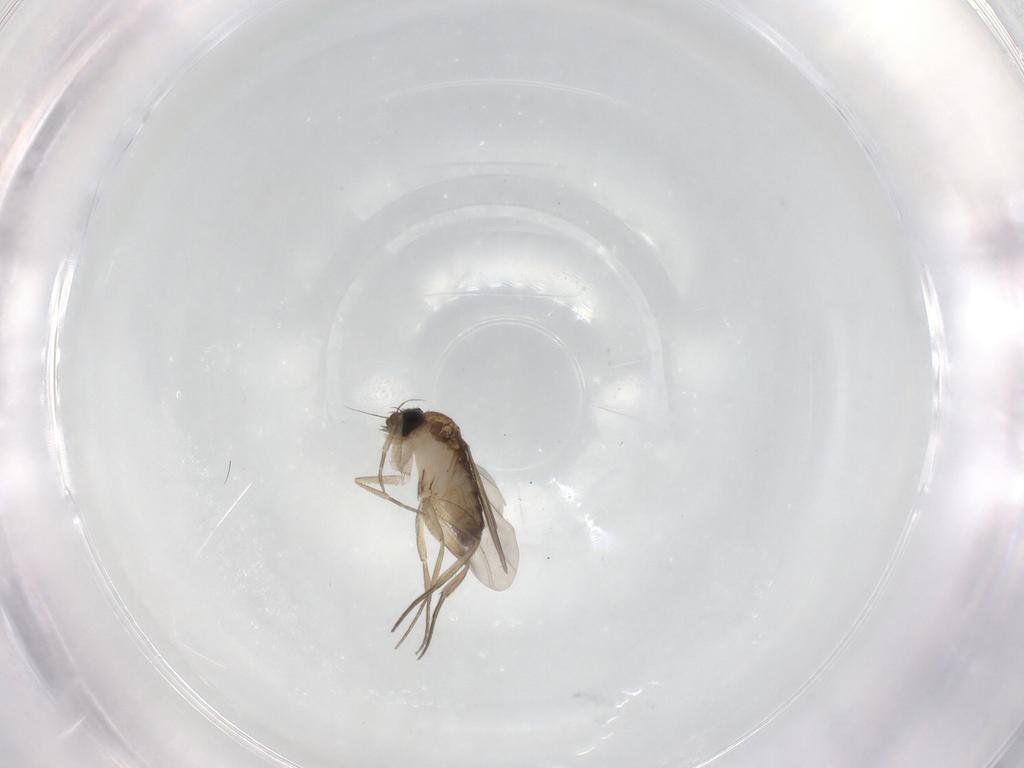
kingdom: Animalia
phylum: Arthropoda
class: Insecta
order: Diptera
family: Phoridae
